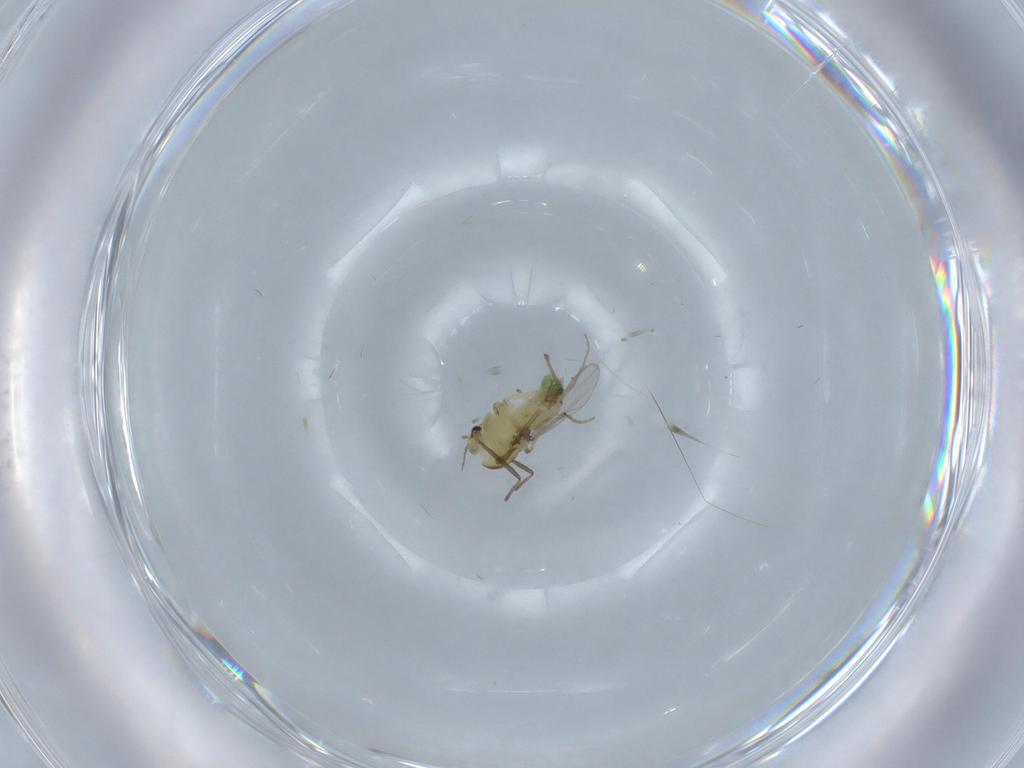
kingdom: Animalia
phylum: Arthropoda
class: Insecta
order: Diptera
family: Chironomidae
